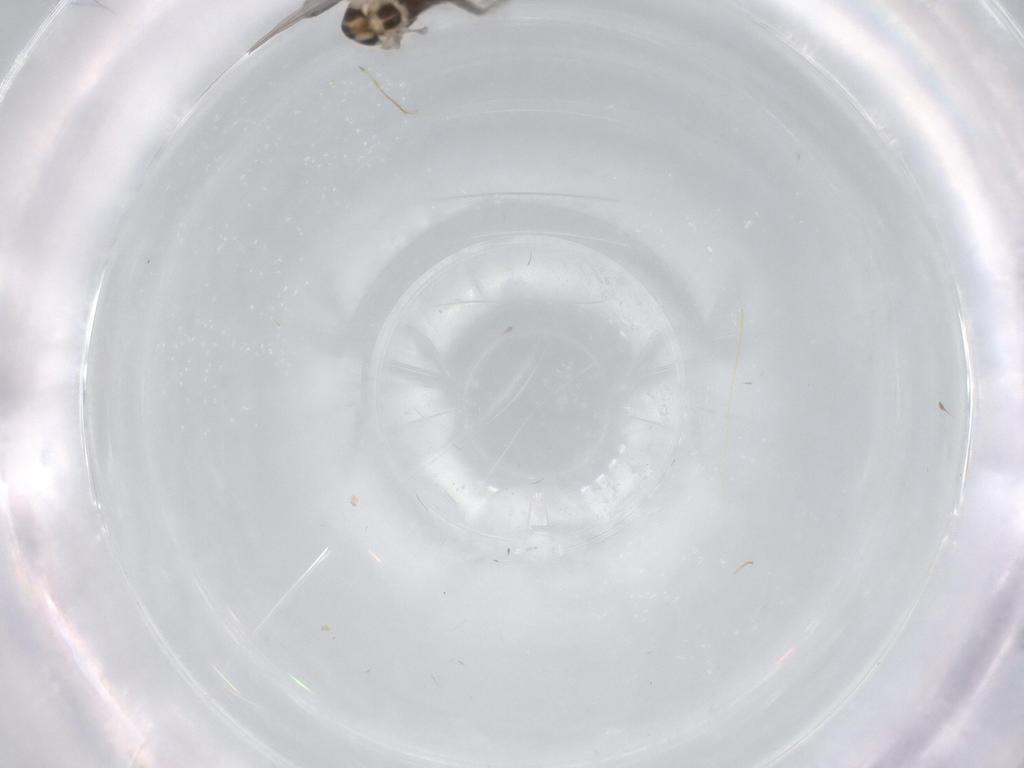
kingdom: Animalia
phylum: Arthropoda
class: Insecta
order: Diptera
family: Chironomidae
